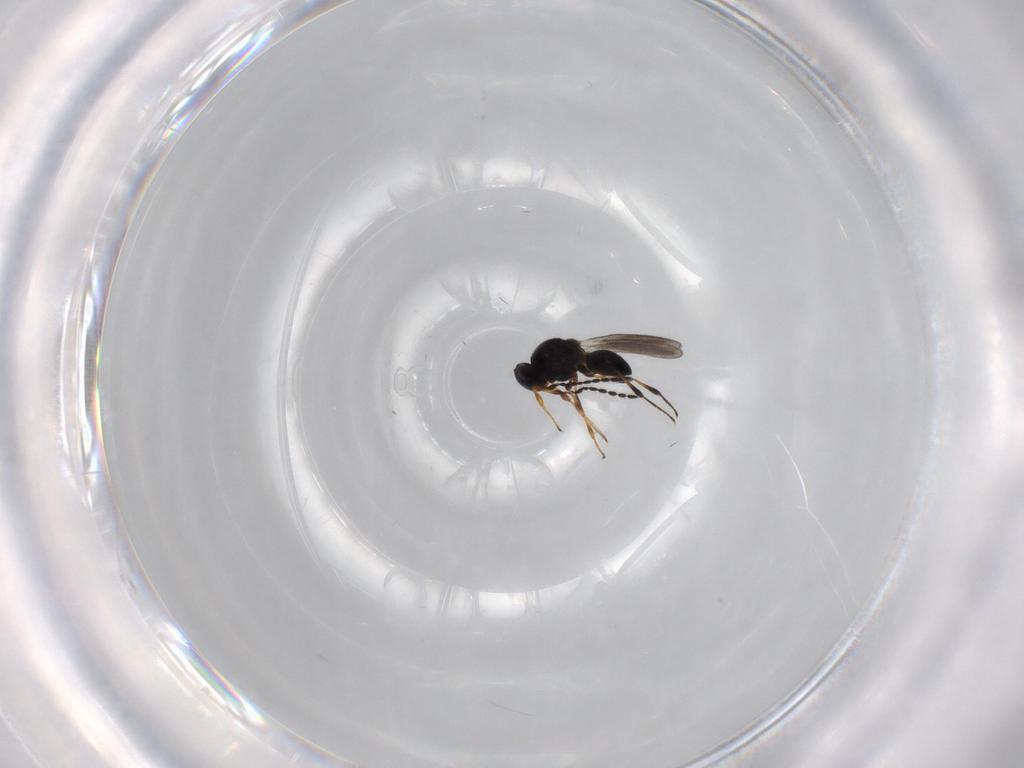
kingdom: Animalia
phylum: Arthropoda
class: Insecta
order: Hymenoptera
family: Platygastridae
